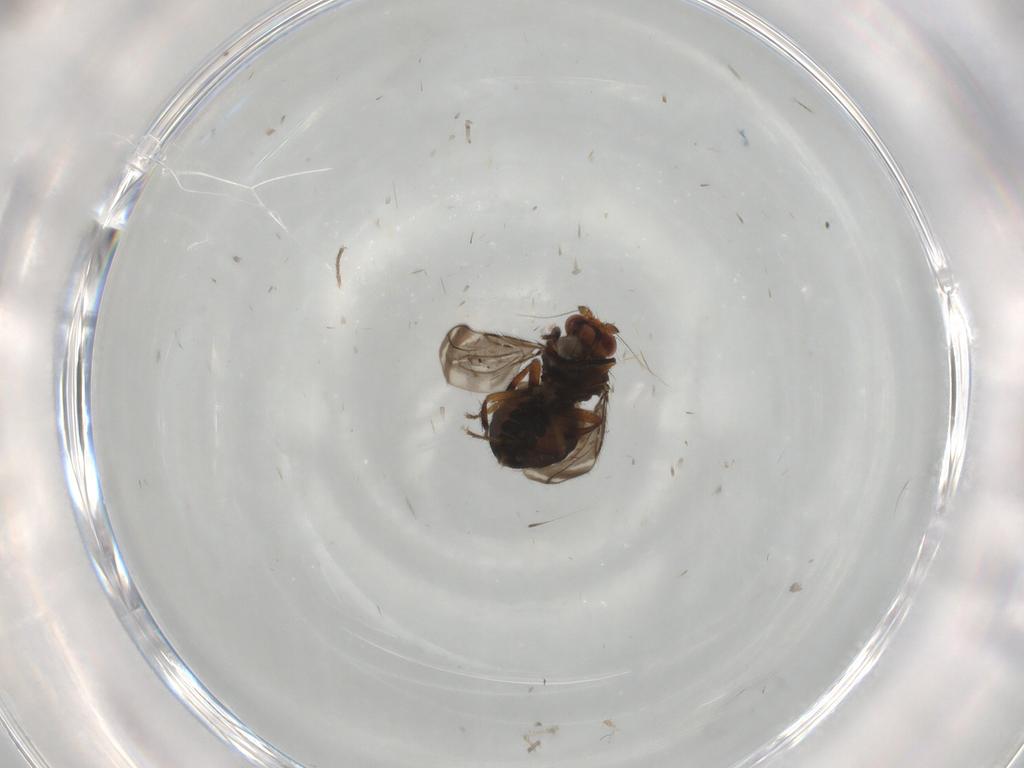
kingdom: Animalia
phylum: Arthropoda
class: Insecta
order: Diptera
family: Sphaeroceridae
